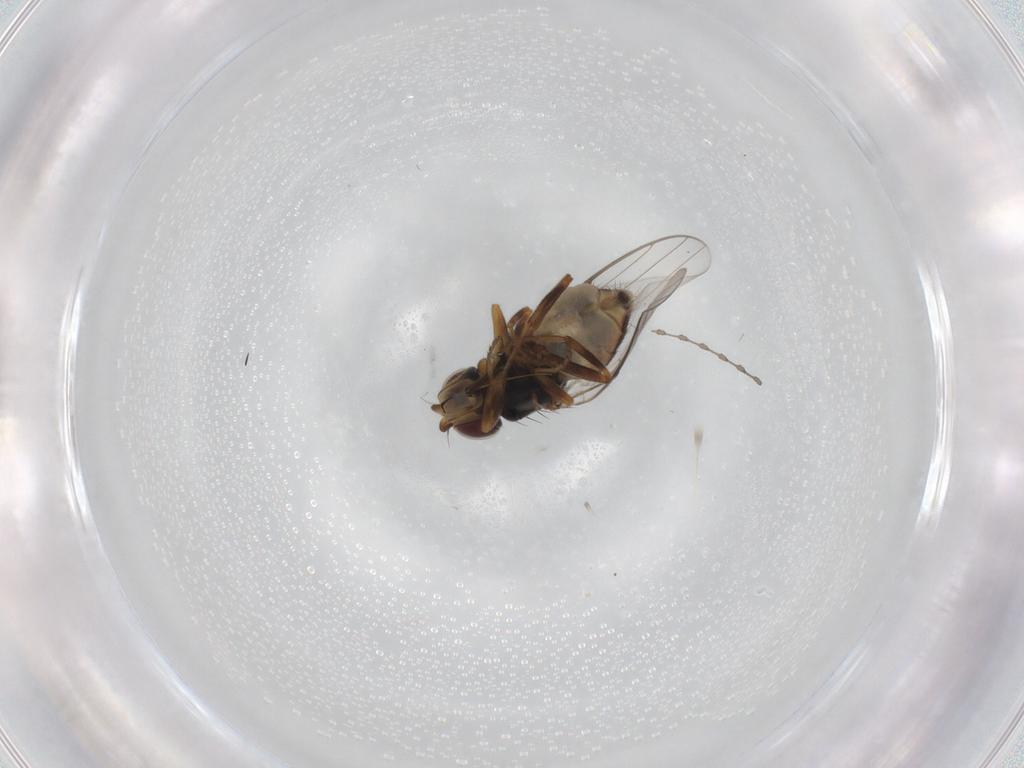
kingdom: Animalia
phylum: Arthropoda
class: Insecta
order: Diptera
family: Chloropidae
